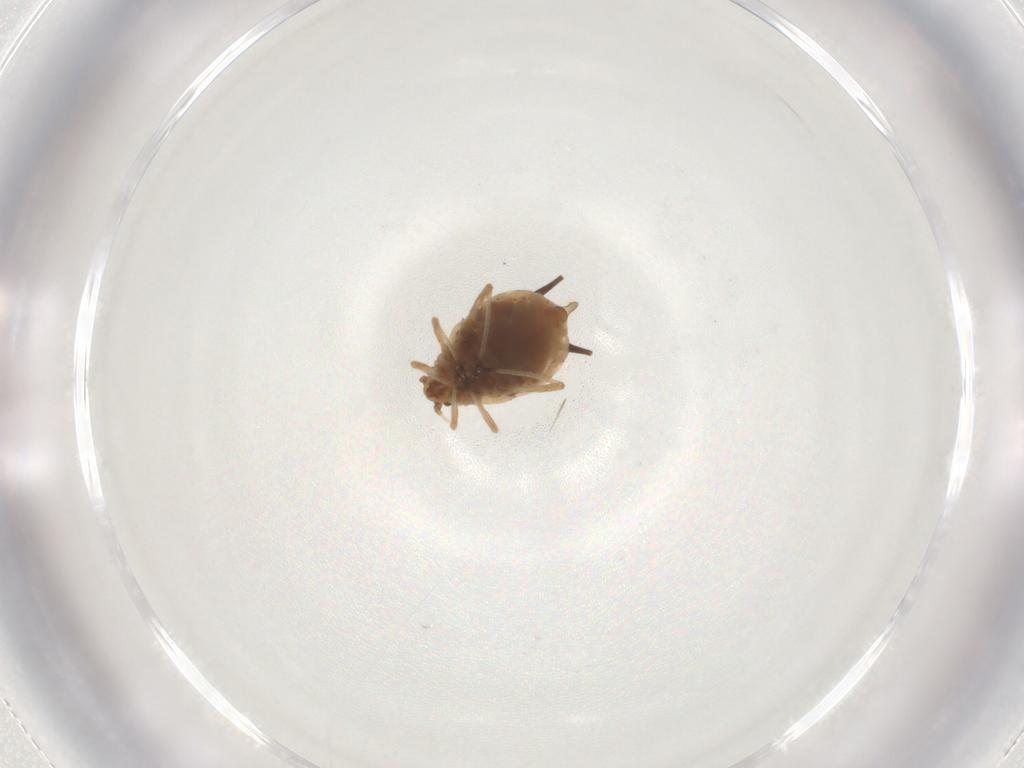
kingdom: Animalia
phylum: Arthropoda
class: Insecta
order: Hemiptera
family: Aphididae
